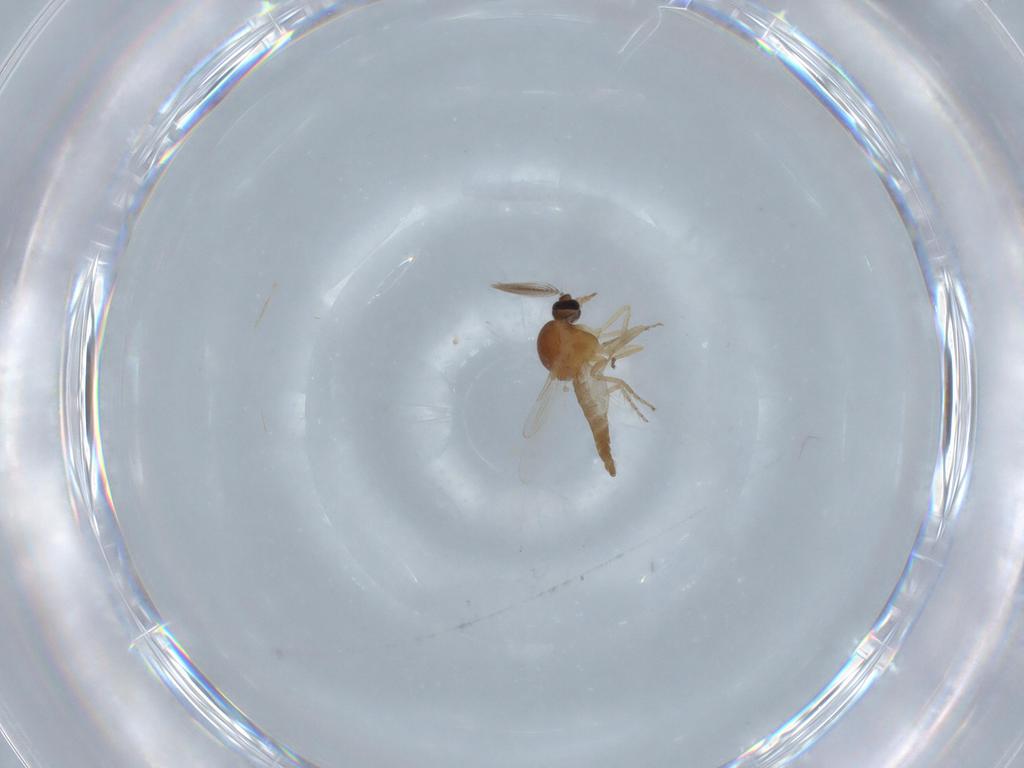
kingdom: Animalia
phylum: Arthropoda
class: Insecta
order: Diptera
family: Ceratopogonidae
